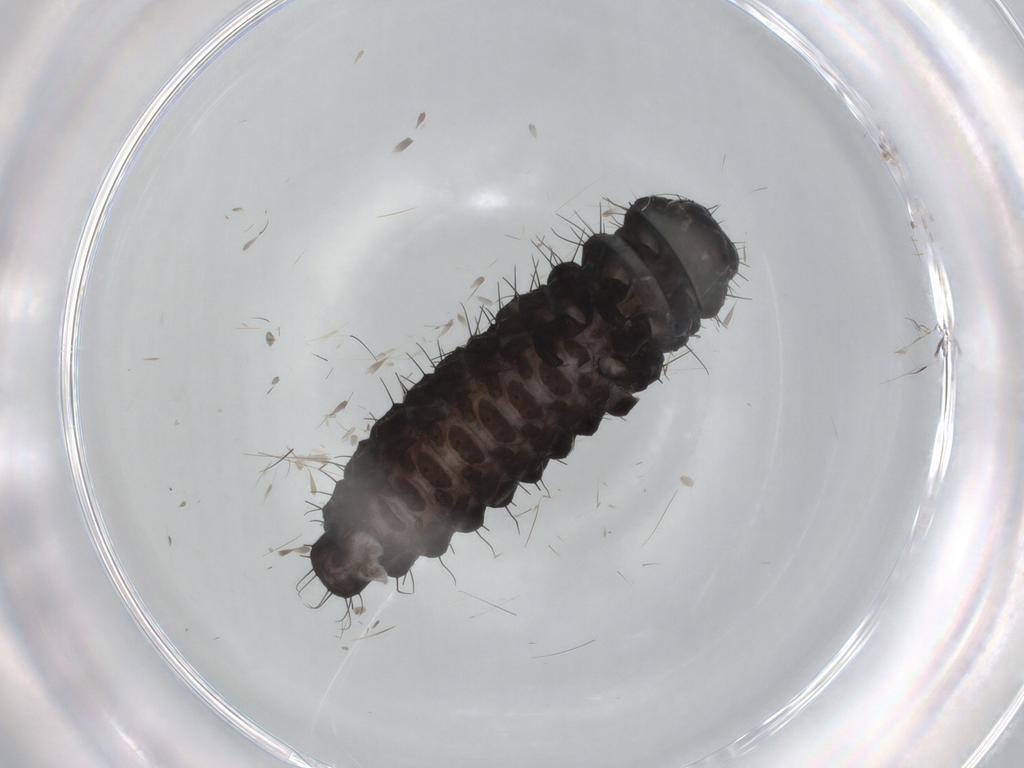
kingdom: Animalia
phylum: Arthropoda
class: Insecta
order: Coleoptera
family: Chrysomelidae
